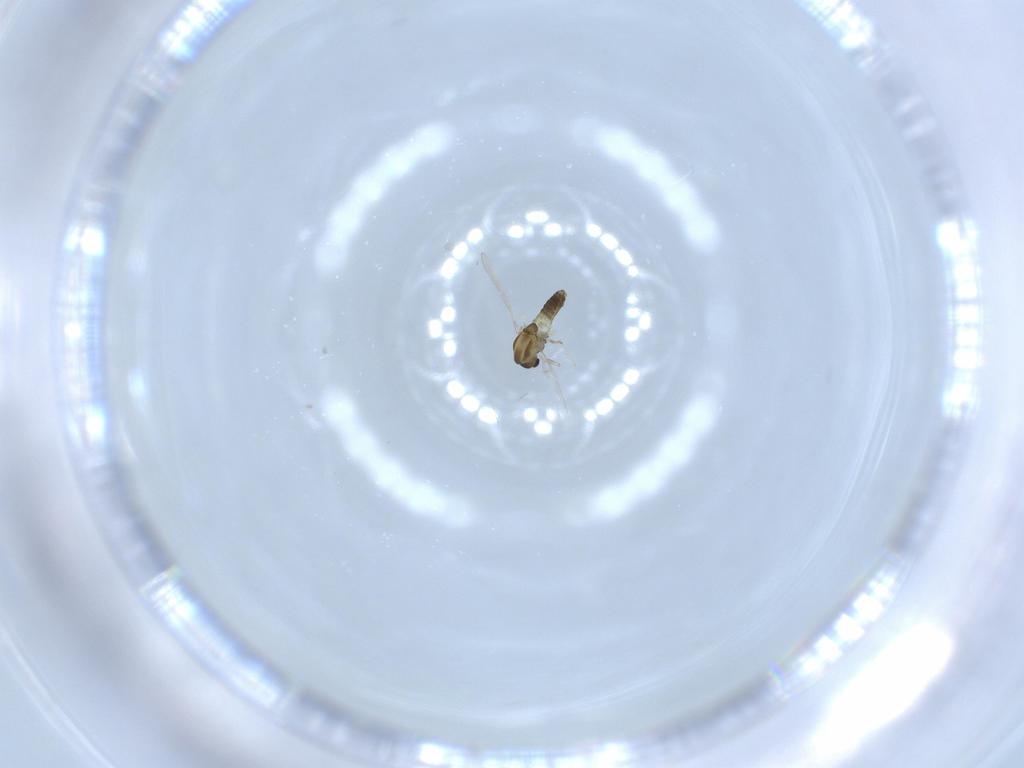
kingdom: Animalia
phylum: Arthropoda
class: Insecta
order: Diptera
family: Chironomidae
